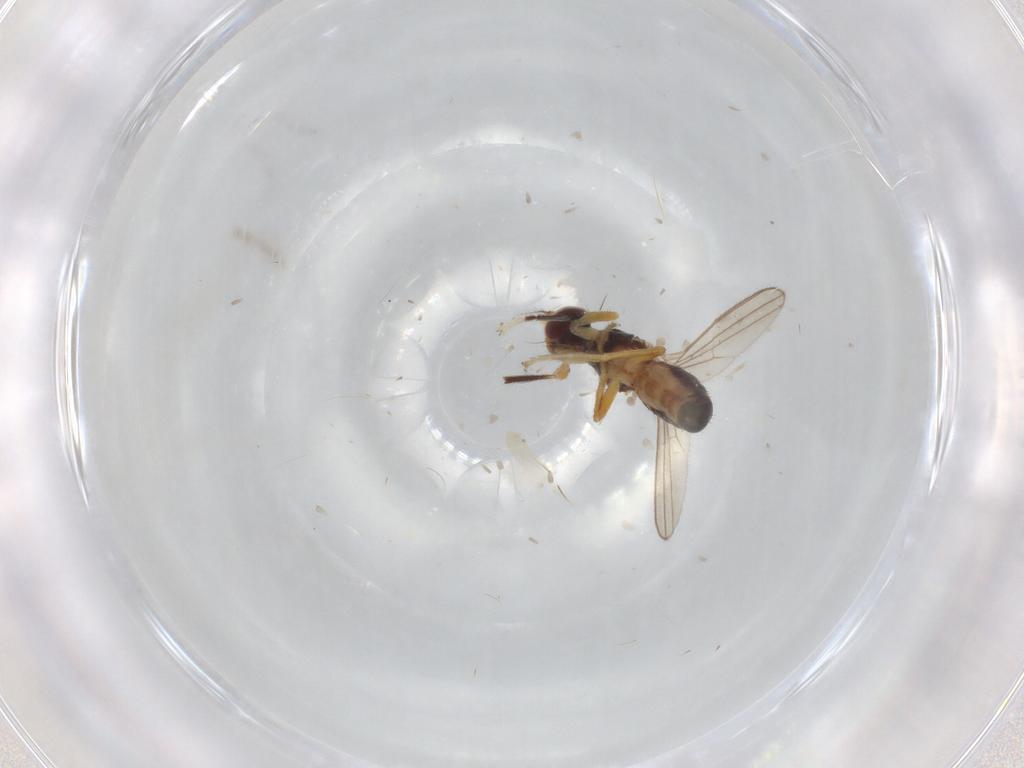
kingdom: Animalia
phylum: Arthropoda
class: Insecta
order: Diptera
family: Anthomyzidae
